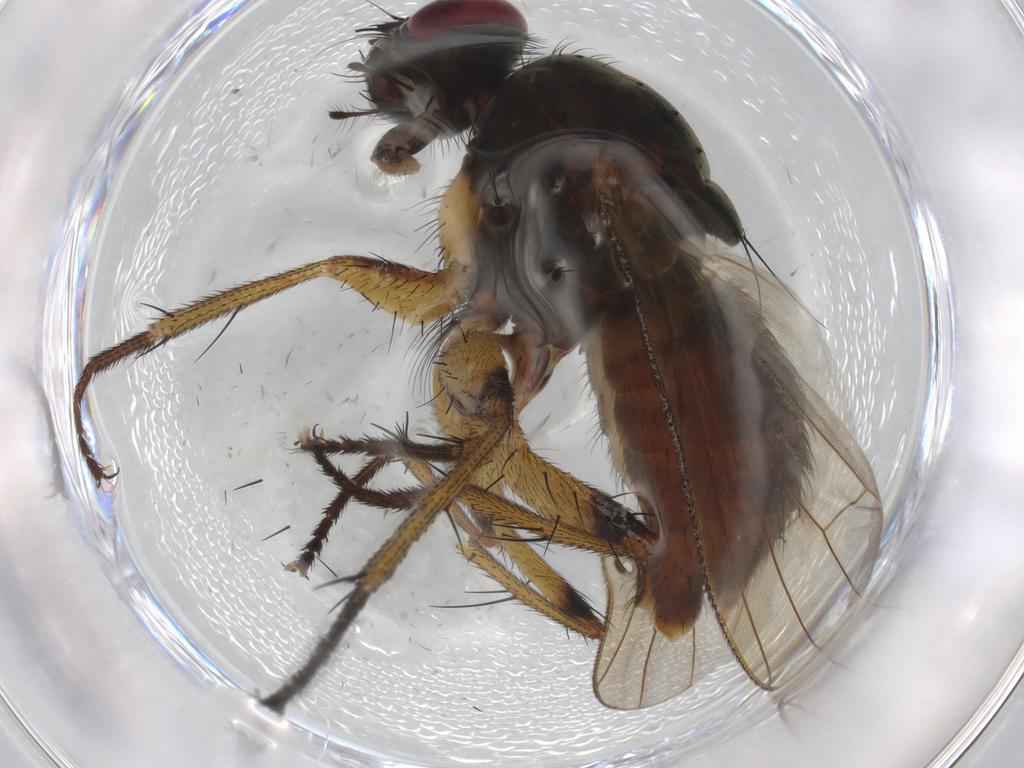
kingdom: Animalia
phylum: Arthropoda
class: Insecta
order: Diptera
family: Muscidae
